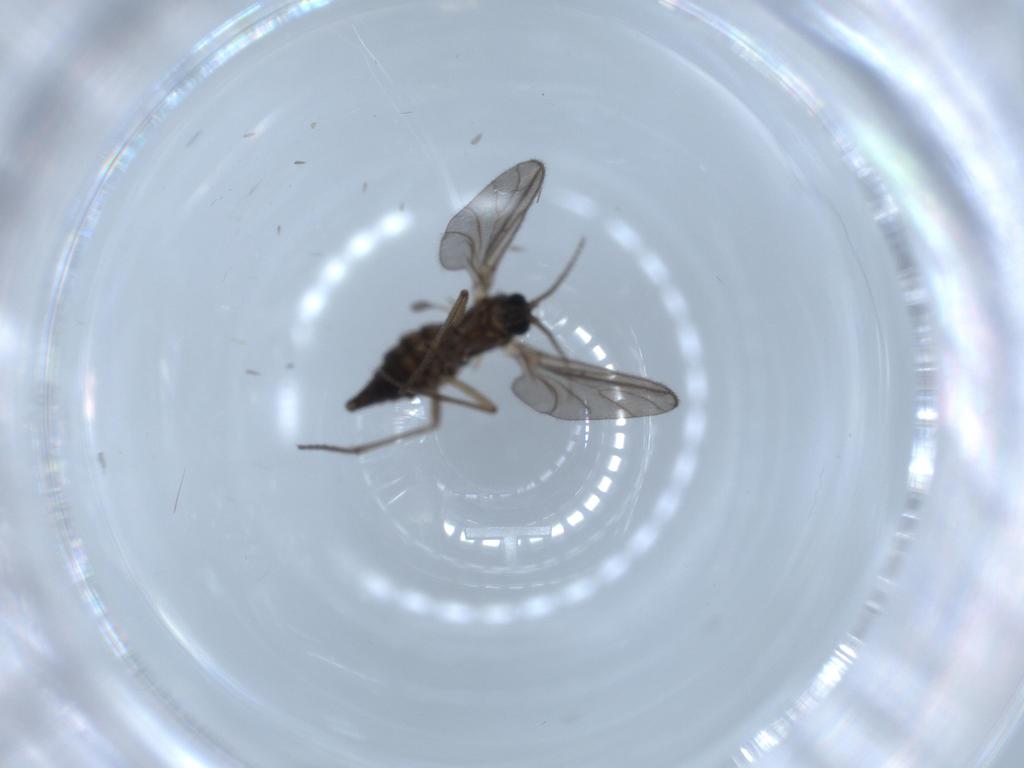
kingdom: Animalia
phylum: Arthropoda
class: Insecta
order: Diptera
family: Sciaridae
